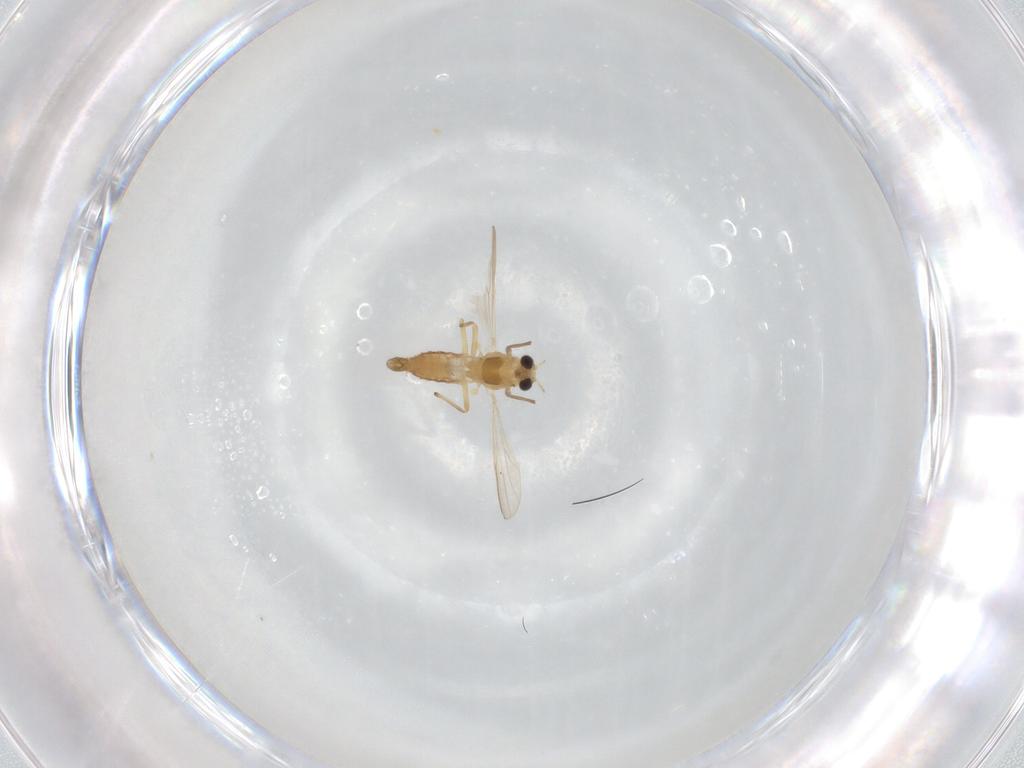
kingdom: Animalia
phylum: Arthropoda
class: Insecta
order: Diptera
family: Chironomidae
